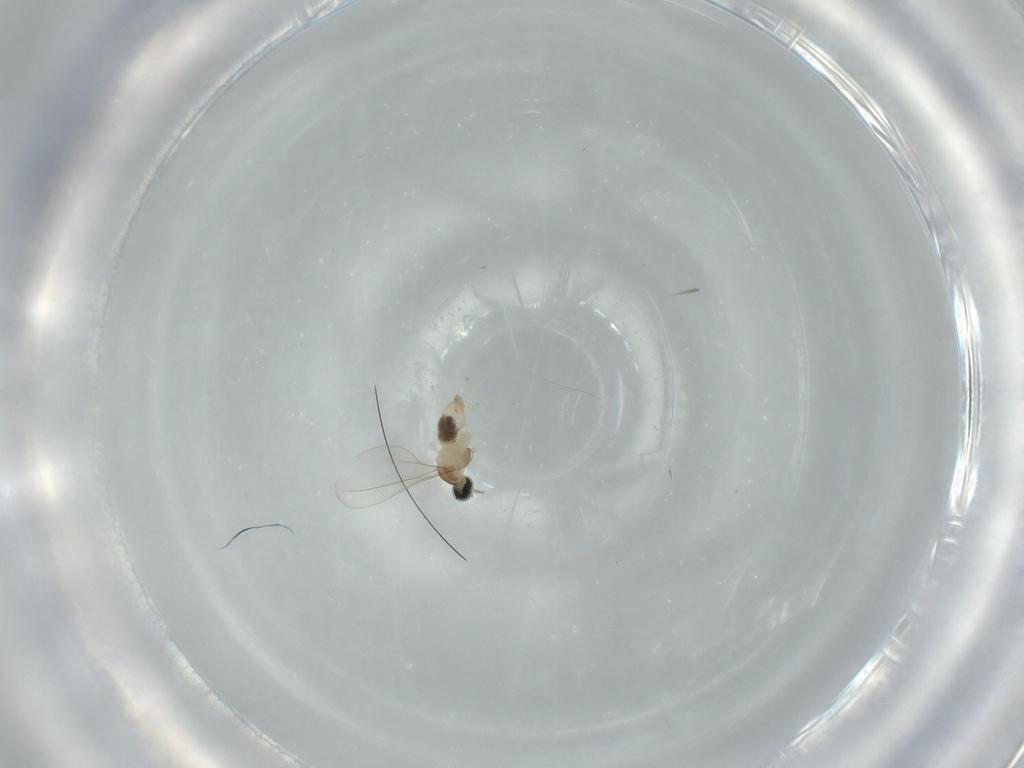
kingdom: Animalia
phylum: Arthropoda
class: Insecta
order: Diptera
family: Cecidomyiidae
